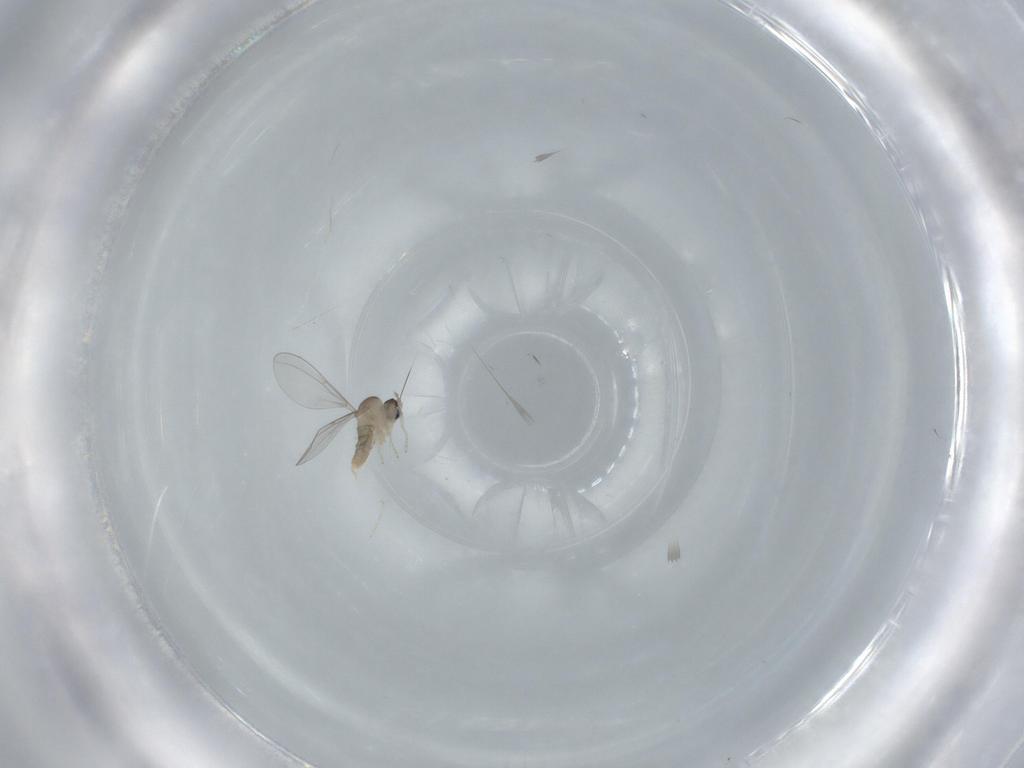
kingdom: Animalia
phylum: Arthropoda
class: Insecta
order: Diptera
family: Cecidomyiidae
